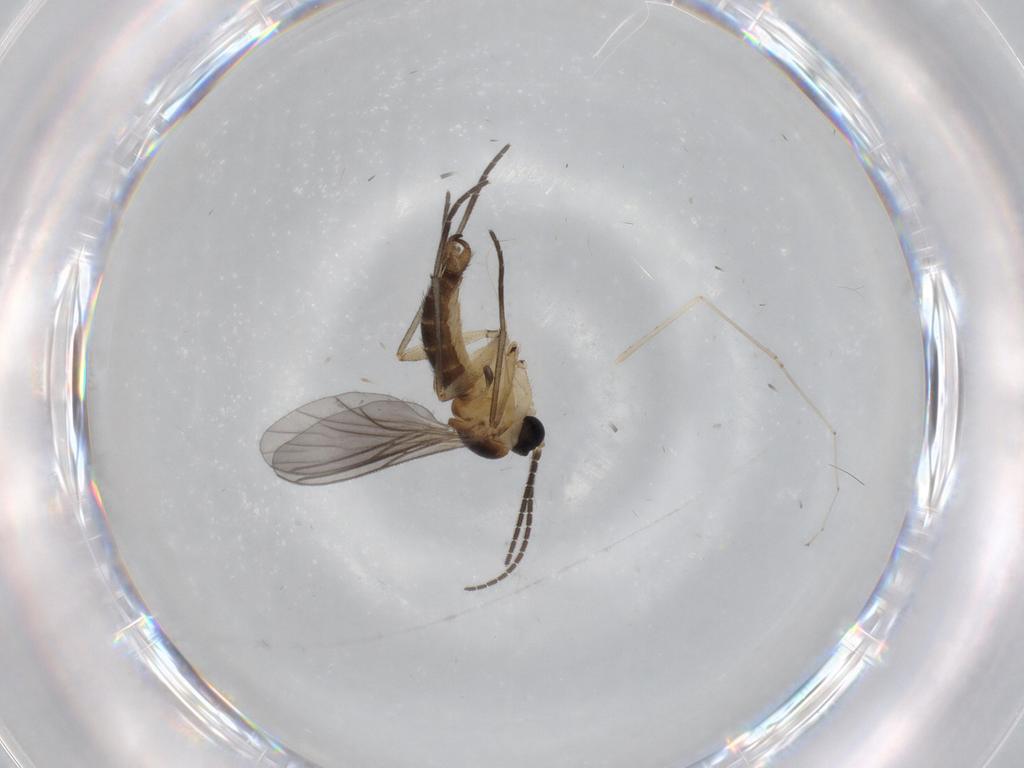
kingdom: Animalia
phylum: Arthropoda
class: Insecta
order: Diptera
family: Sciaridae
